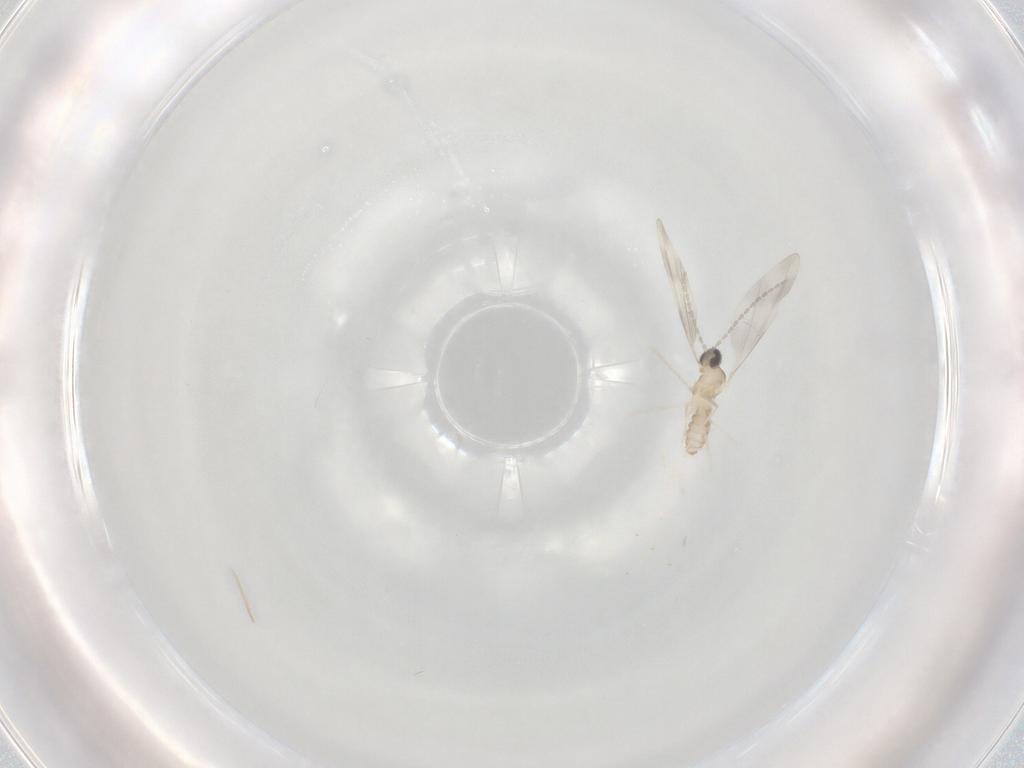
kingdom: Animalia
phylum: Arthropoda
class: Insecta
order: Diptera
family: Cecidomyiidae
